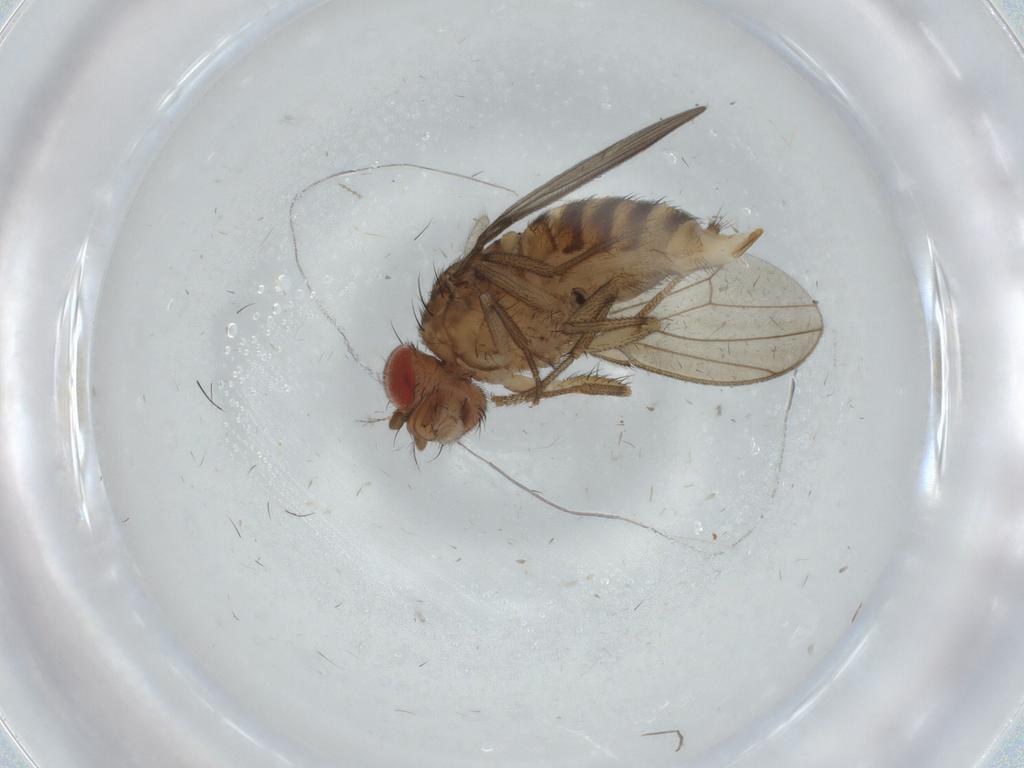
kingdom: Animalia
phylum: Arthropoda
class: Insecta
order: Diptera
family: Drosophilidae
